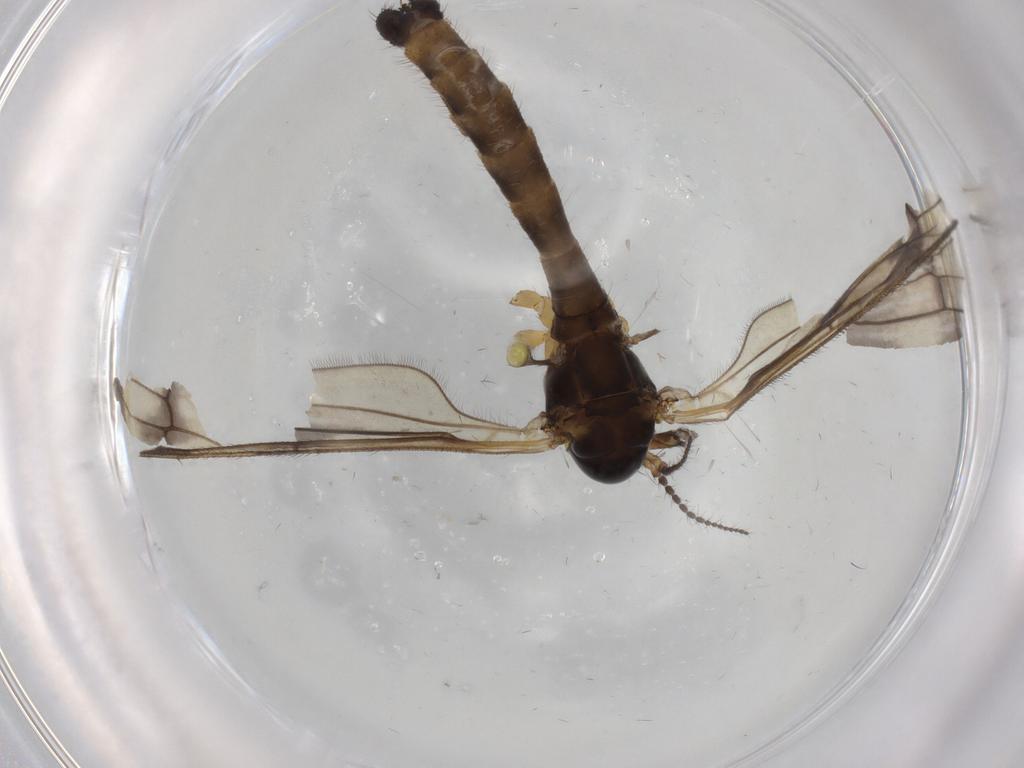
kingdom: Animalia
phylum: Arthropoda
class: Insecta
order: Diptera
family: Limoniidae
